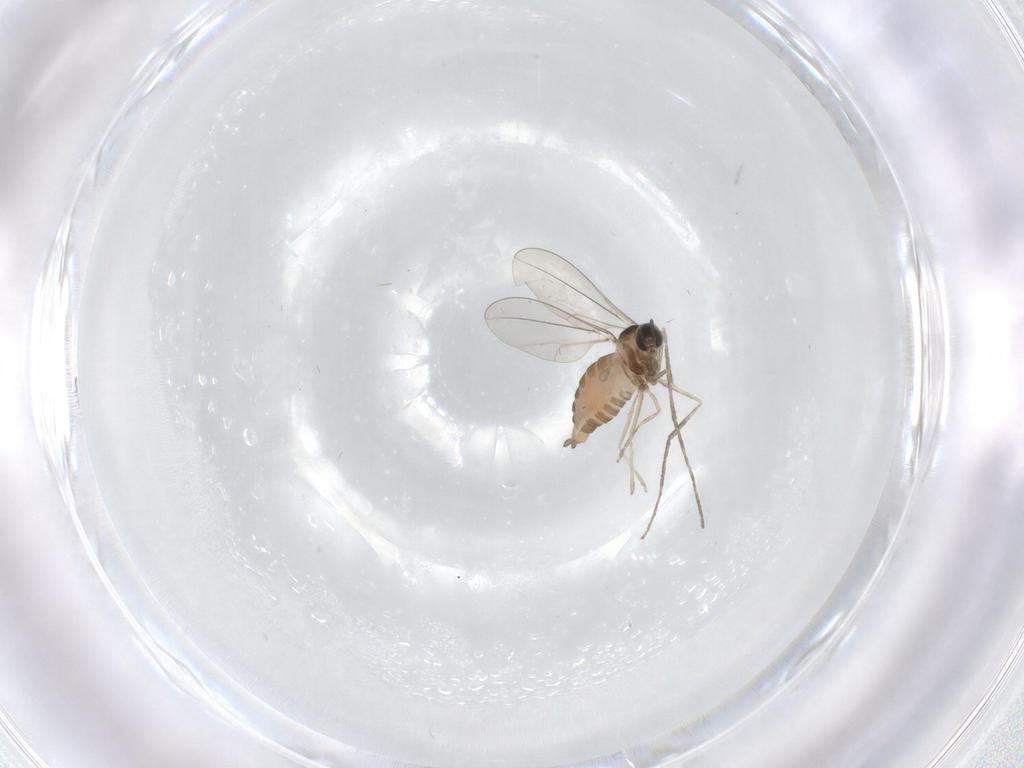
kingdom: Animalia
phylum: Arthropoda
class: Insecta
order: Diptera
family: Cecidomyiidae
